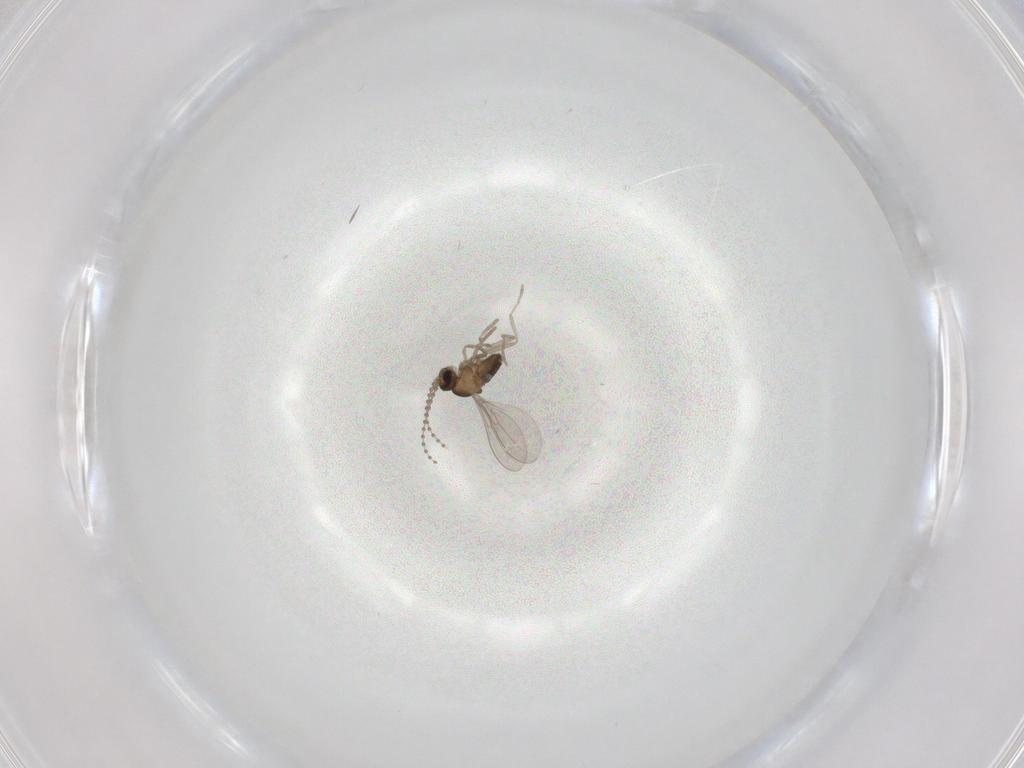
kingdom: Animalia
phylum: Arthropoda
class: Insecta
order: Diptera
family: Cecidomyiidae
